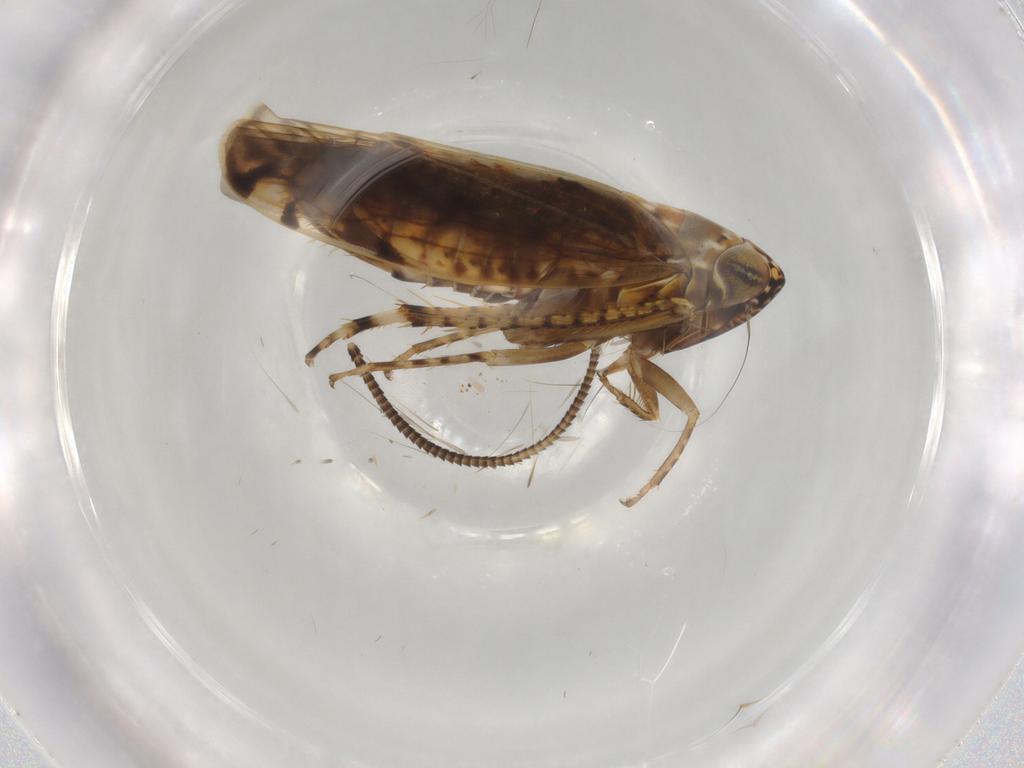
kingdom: Animalia
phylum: Arthropoda
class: Insecta
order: Hemiptera
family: Cicadellidae
